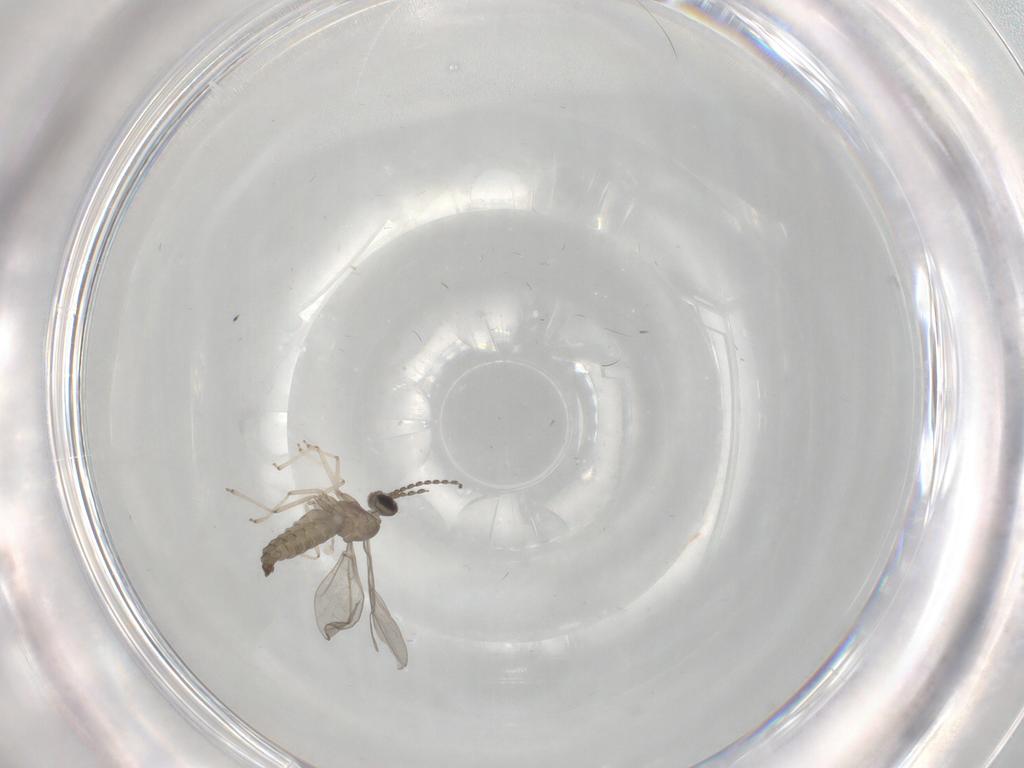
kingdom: Animalia
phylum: Arthropoda
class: Insecta
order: Diptera
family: Cecidomyiidae
